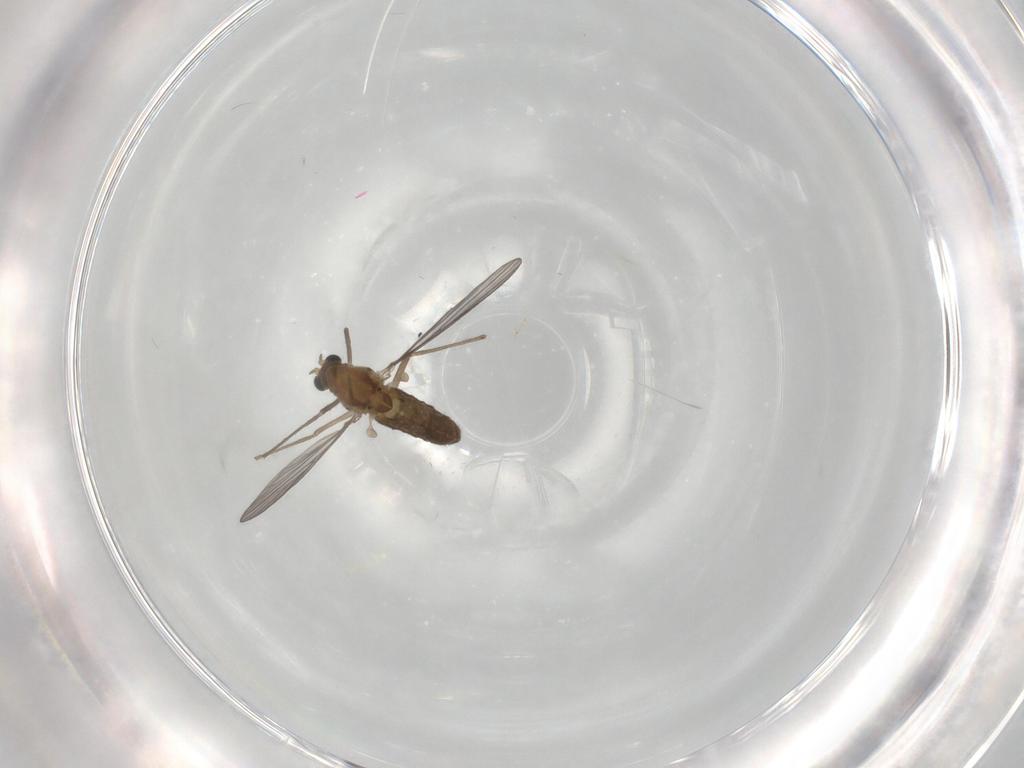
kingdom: Animalia
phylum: Arthropoda
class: Insecta
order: Diptera
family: Chironomidae
